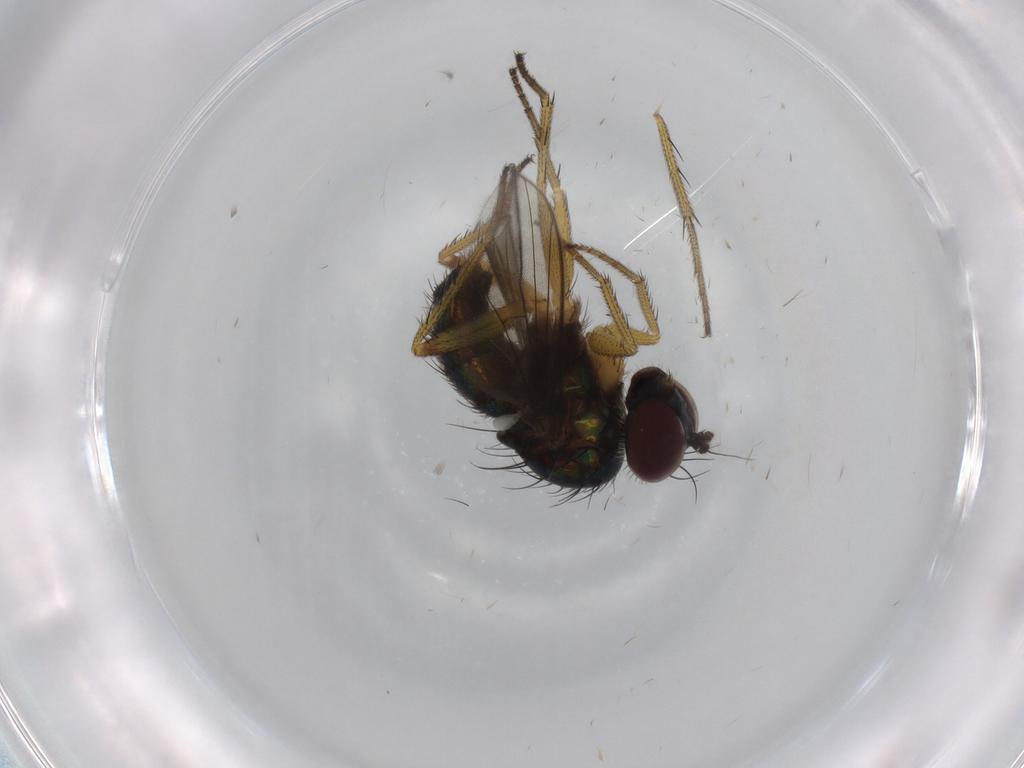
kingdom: Animalia
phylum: Arthropoda
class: Insecta
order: Diptera
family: Dolichopodidae
